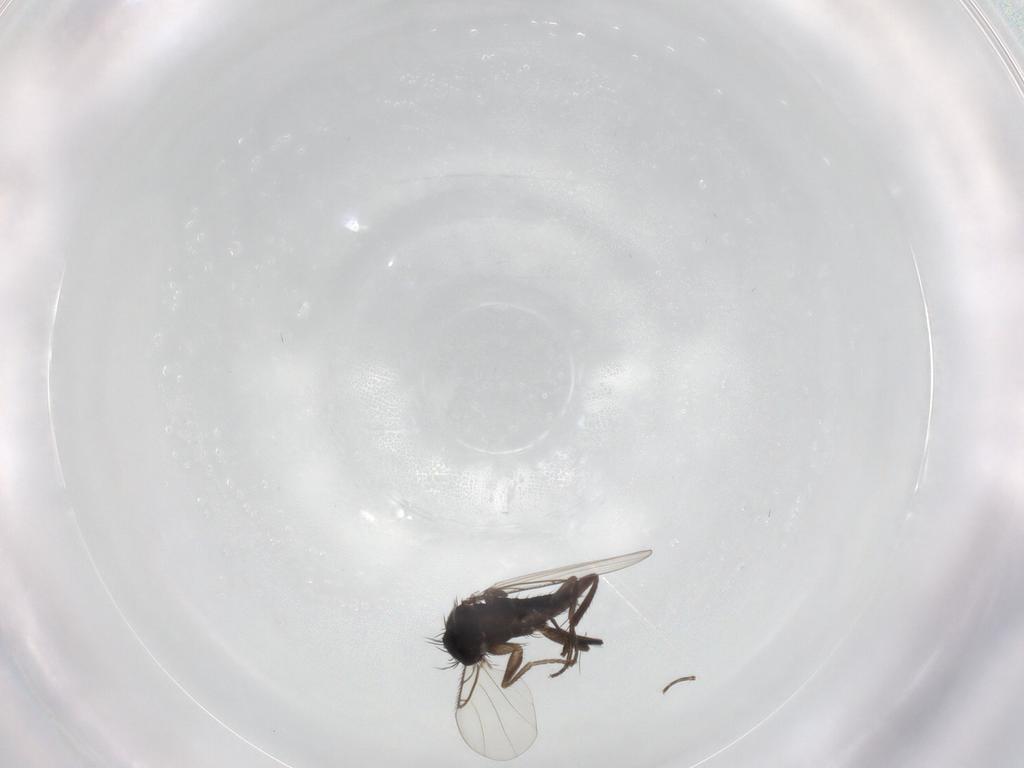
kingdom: Animalia
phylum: Arthropoda
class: Insecta
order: Diptera
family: Phoridae
